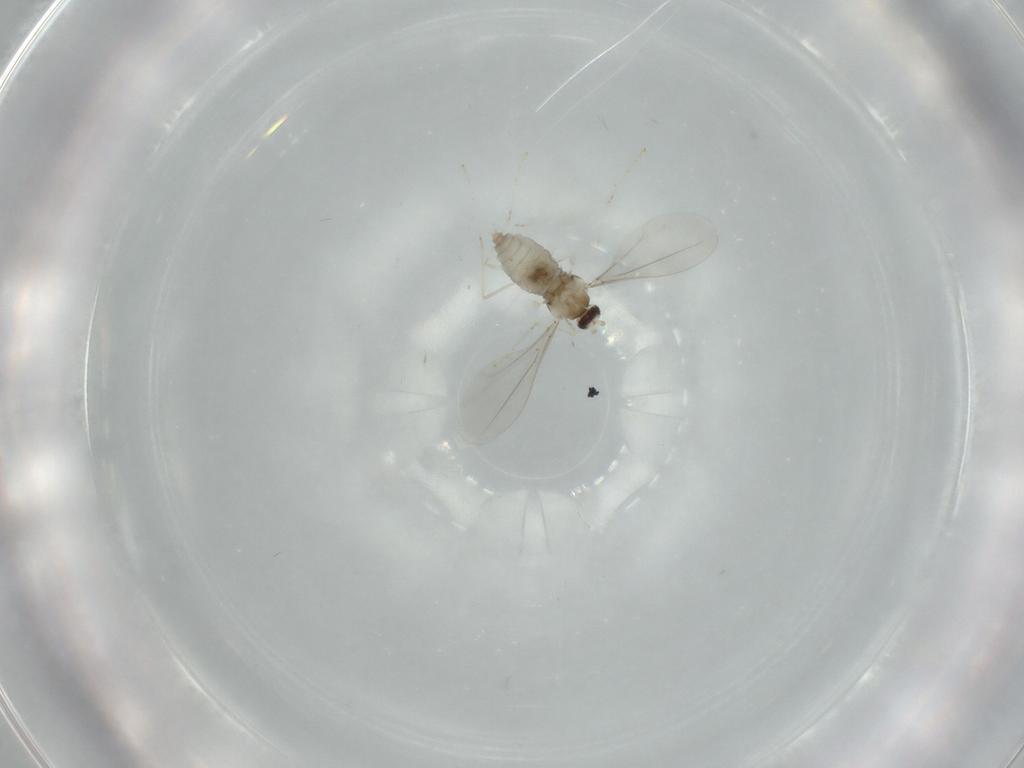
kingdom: Animalia
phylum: Arthropoda
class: Insecta
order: Diptera
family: Cecidomyiidae
